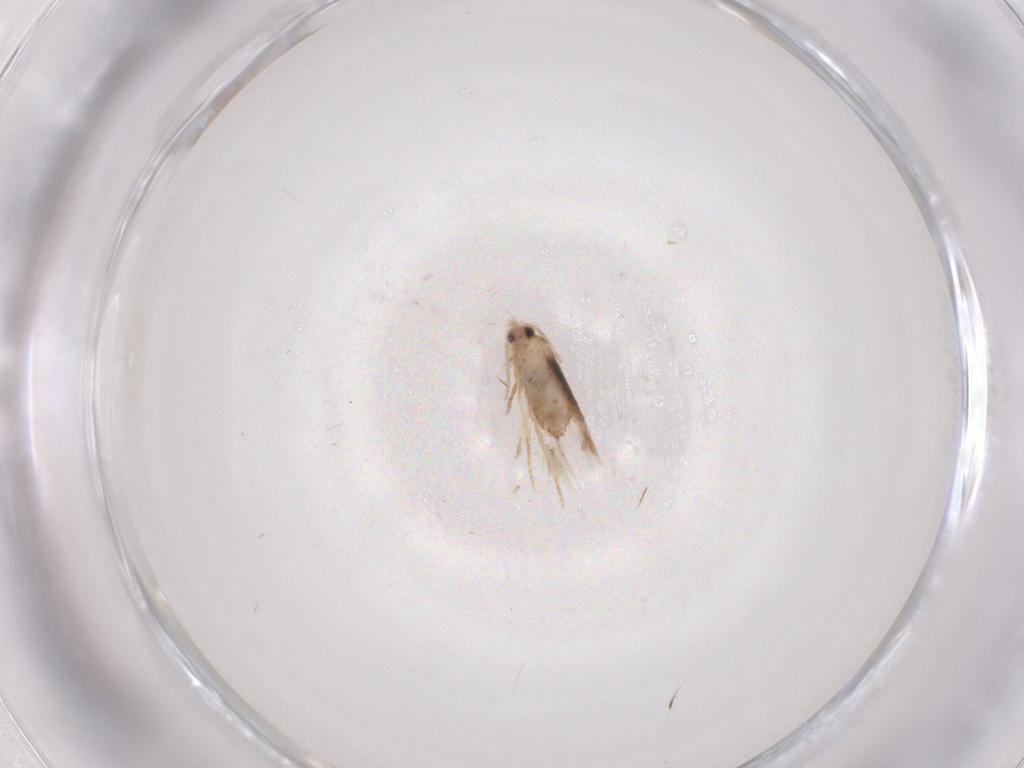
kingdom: Animalia
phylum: Arthropoda
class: Insecta
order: Lepidoptera
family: Nepticulidae
